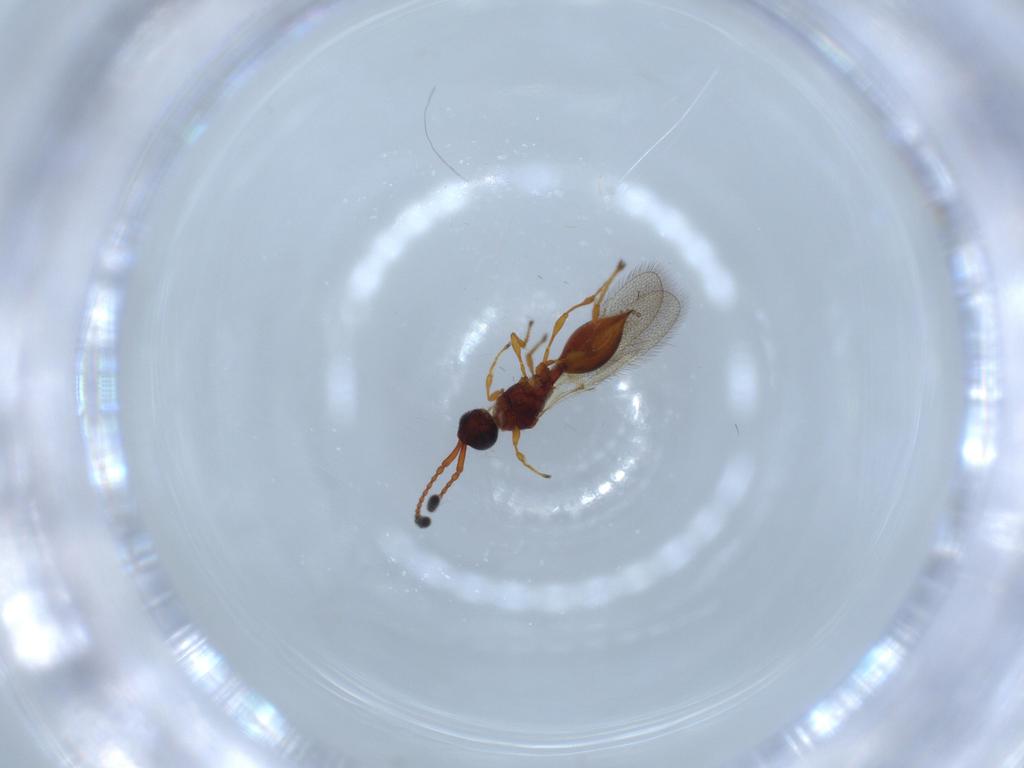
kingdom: Animalia
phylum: Arthropoda
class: Insecta
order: Hymenoptera
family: Diapriidae
